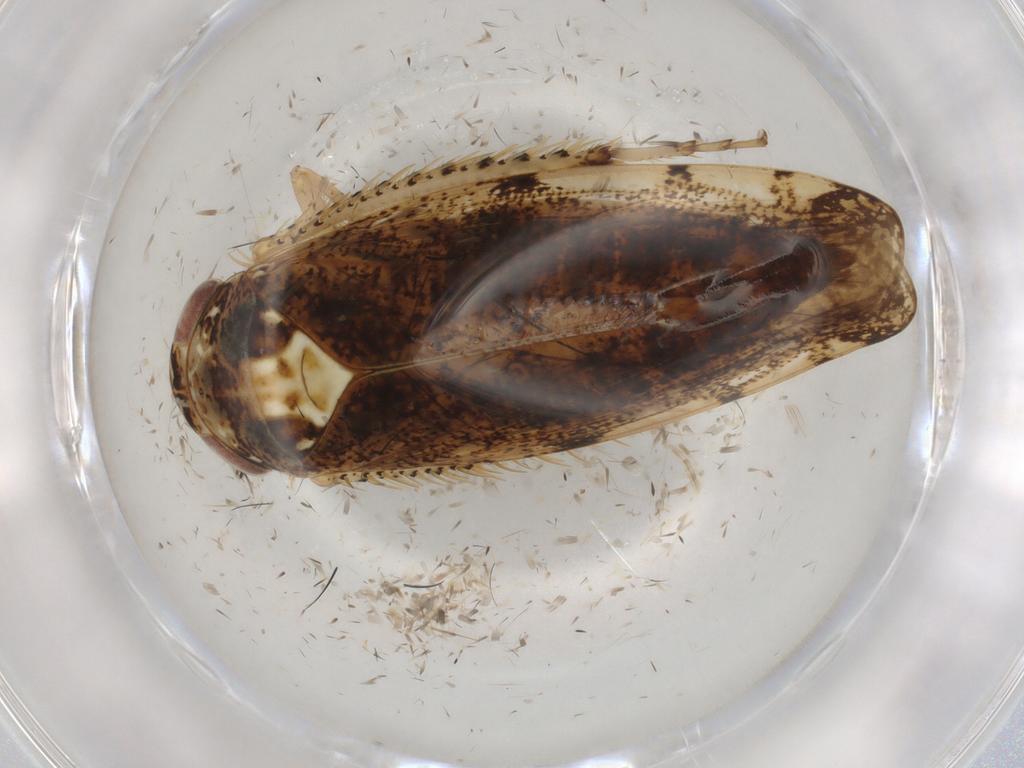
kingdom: Animalia
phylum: Arthropoda
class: Insecta
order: Hemiptera
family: Cicadellidae
